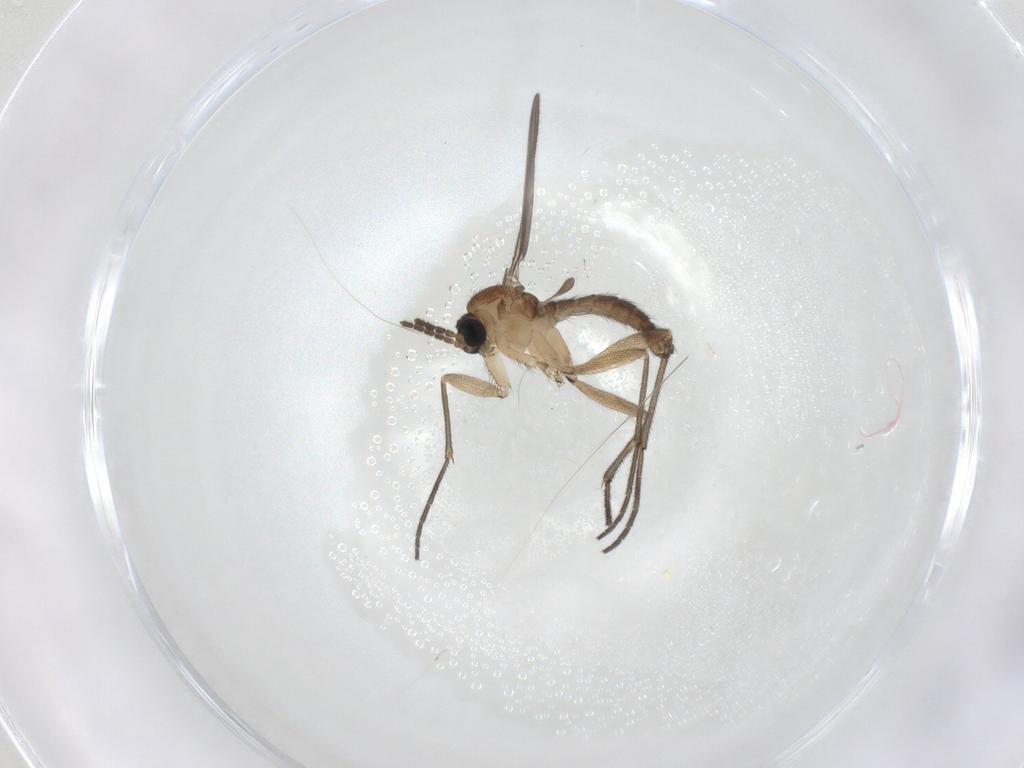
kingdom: Animalia
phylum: Arthropoda
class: Insecta
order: Diptera
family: Sciaridae
